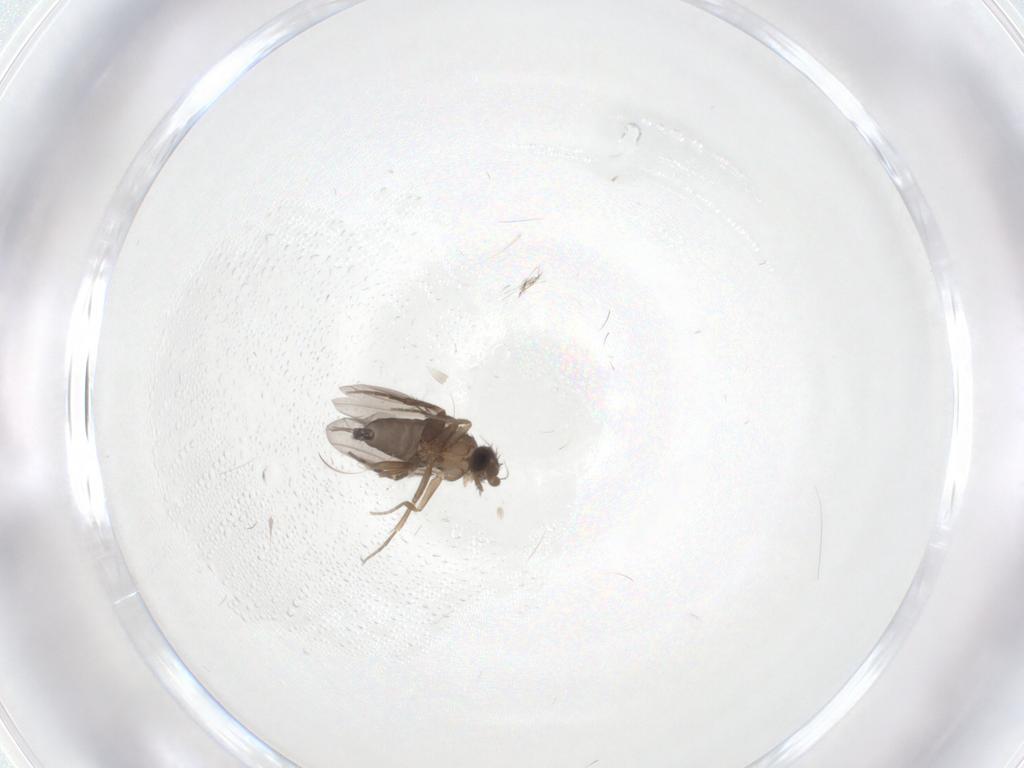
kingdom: Animalia
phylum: Arthropoda
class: Insecta
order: Diptera
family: Phoridae
